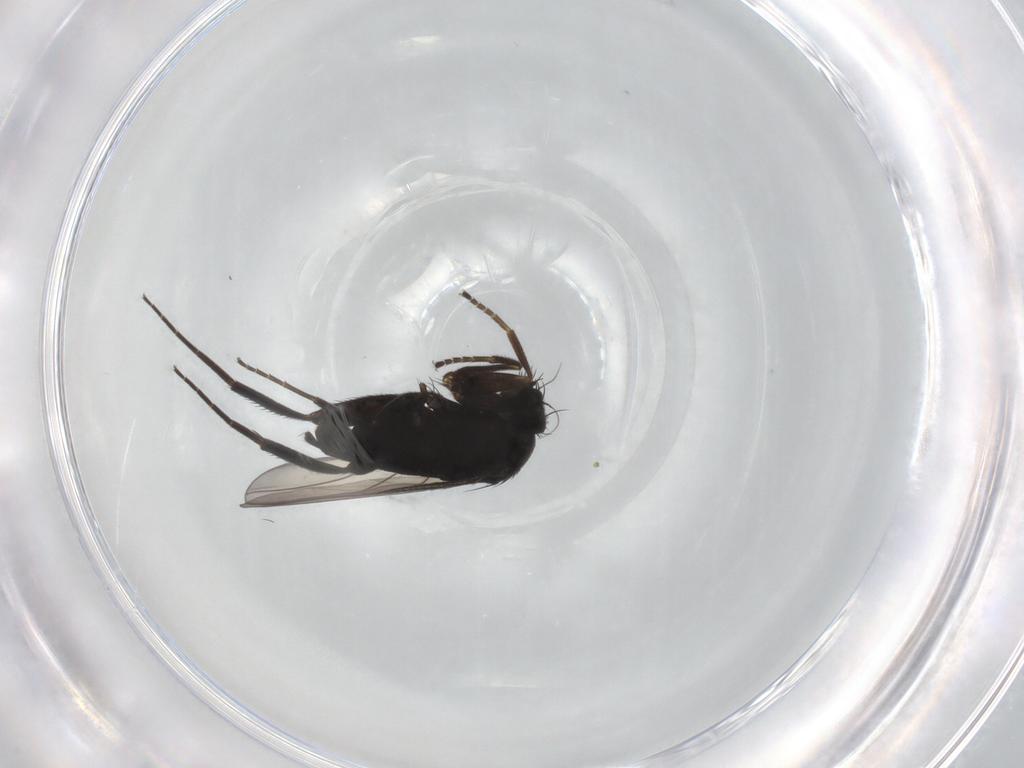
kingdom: Animalia
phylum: Arthropoda
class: Insecta
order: Diptera
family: Phoridae
